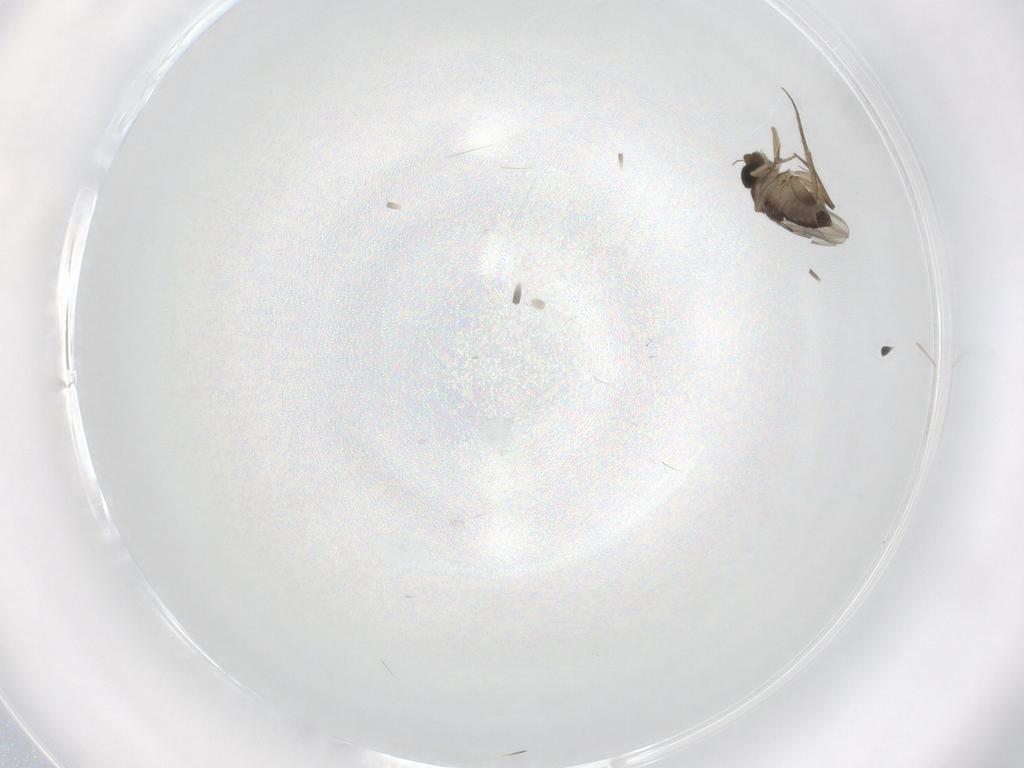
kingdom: Animalia
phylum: Arthropoda
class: Insecta
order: Diptera
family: Phoridae
